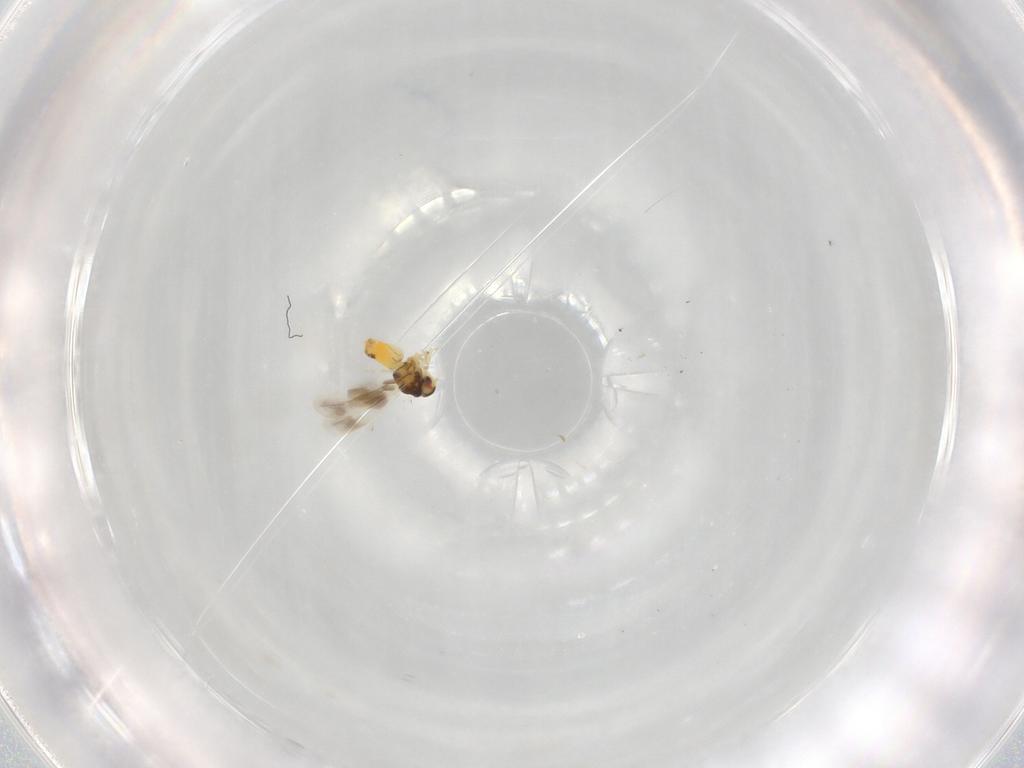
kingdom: Animalia
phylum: Arthropoda
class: Insecta
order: Hemiptera
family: Aleyrodidae
